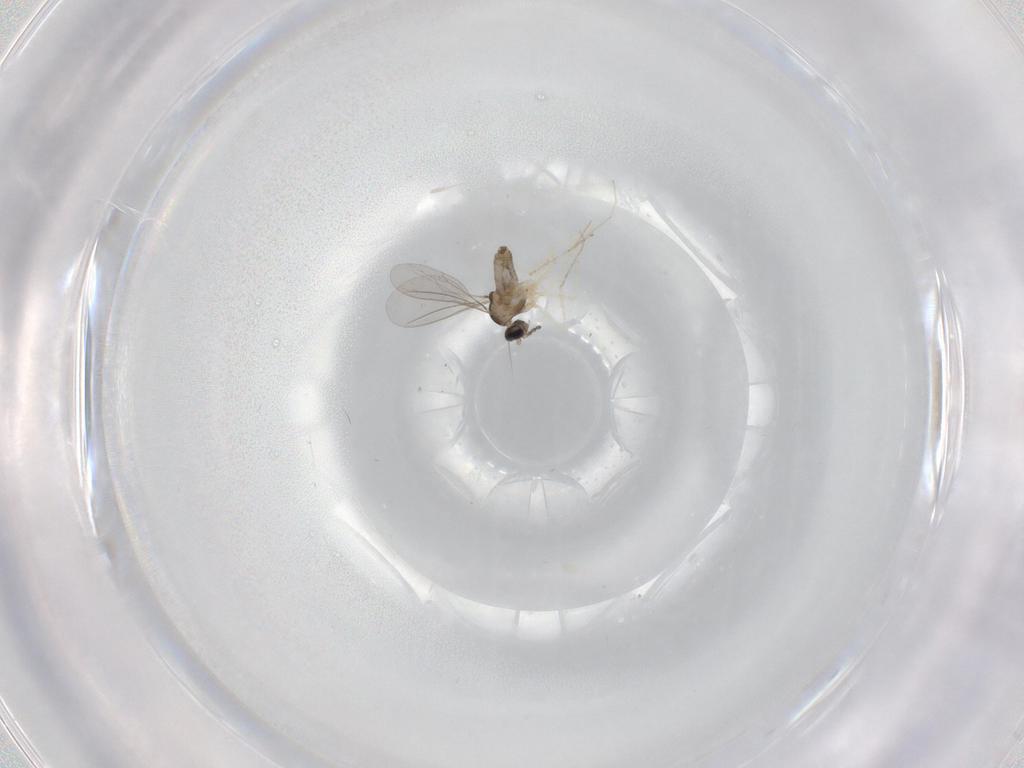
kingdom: Animalia
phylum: Arthropoda
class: Insecta
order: Diptera
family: Cecidomyiidae
